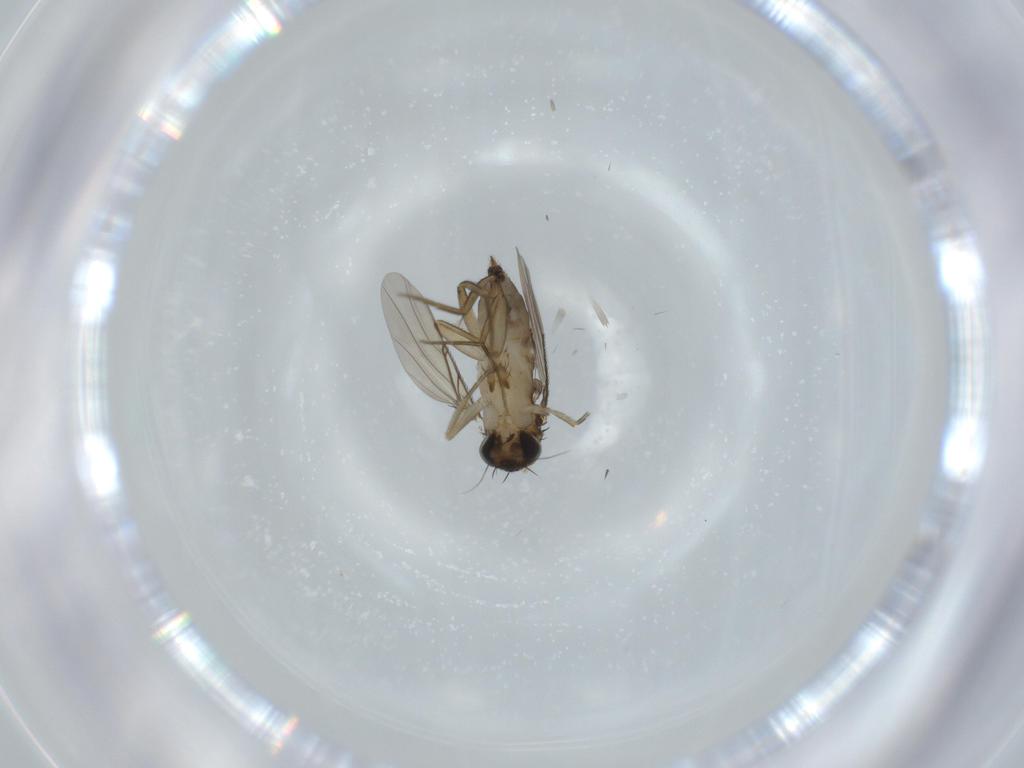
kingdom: Animalia
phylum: Arthropoda
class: Insecta
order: Diptera
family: Phoridae
